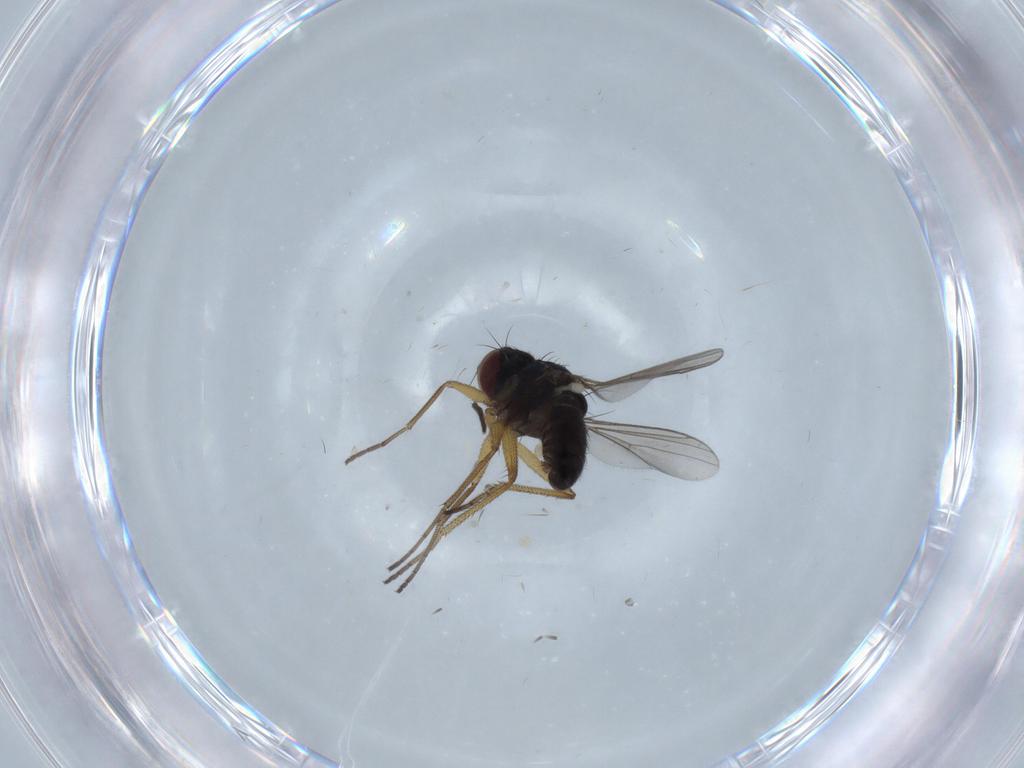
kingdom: Animalia
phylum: Arthropoda
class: Insecta
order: Diptera
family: Dolichopodidae
